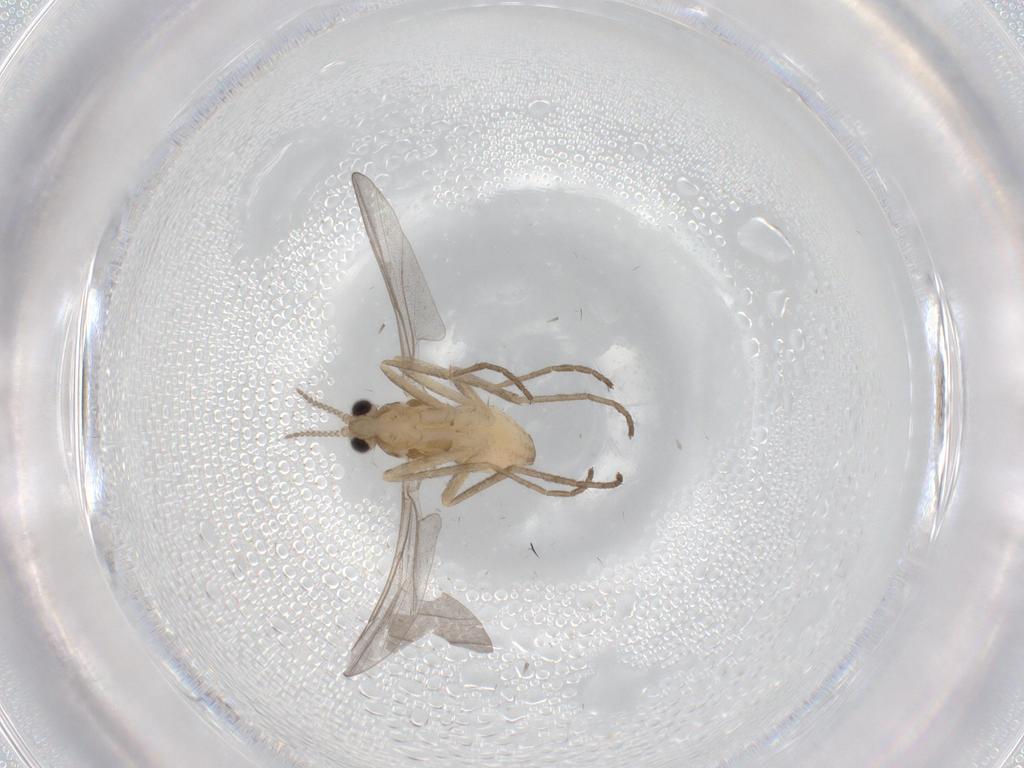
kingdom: Animalia
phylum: Arthropoda
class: Insecta
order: Diptera
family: Cecidomyiidae
